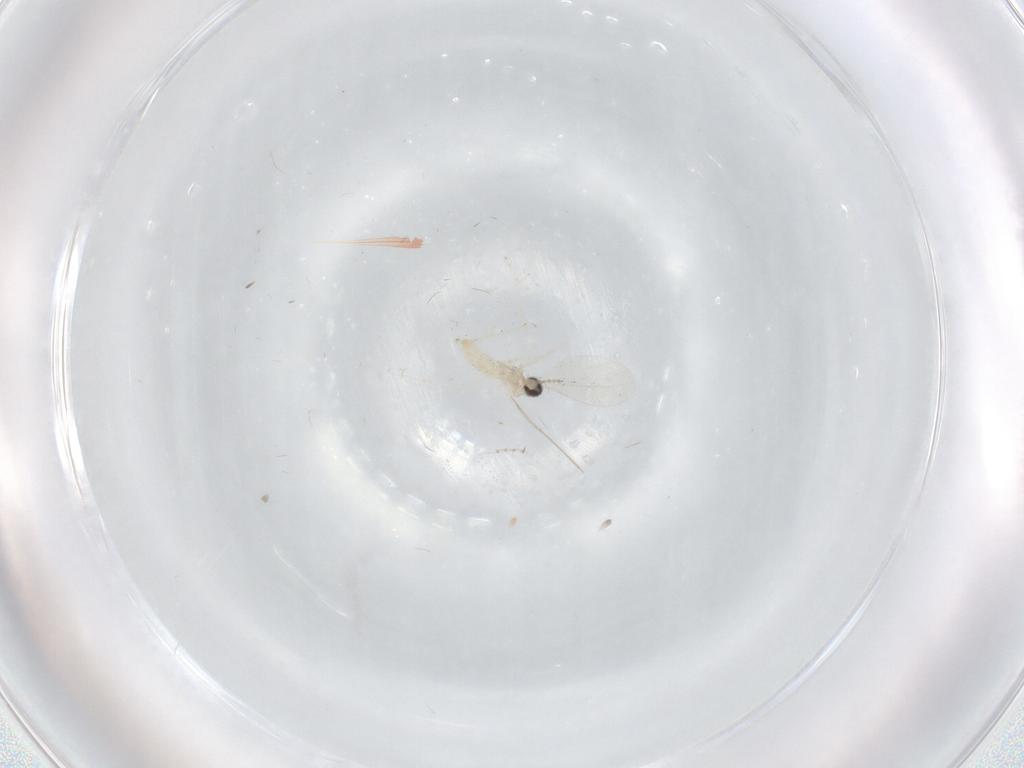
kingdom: Animalia
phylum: Arthropoda
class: Insecta
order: Diptera
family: Cecidomyiidae
